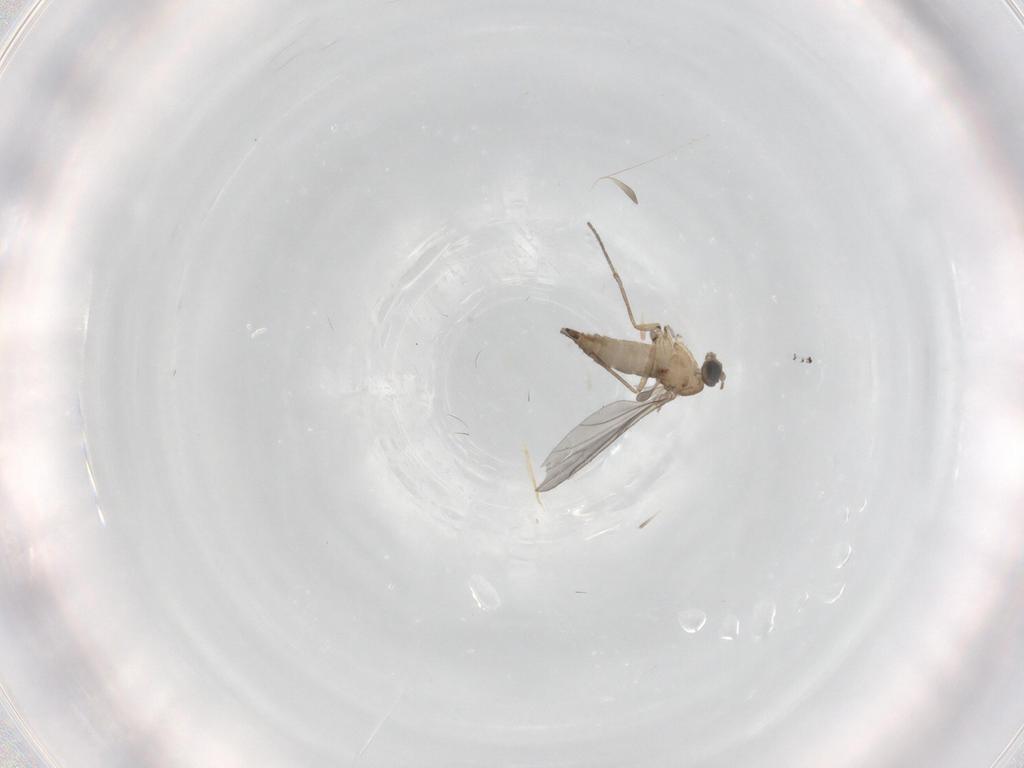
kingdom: Animalia
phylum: Arthropoda
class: Insecta
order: Diptera
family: Sciaridae
